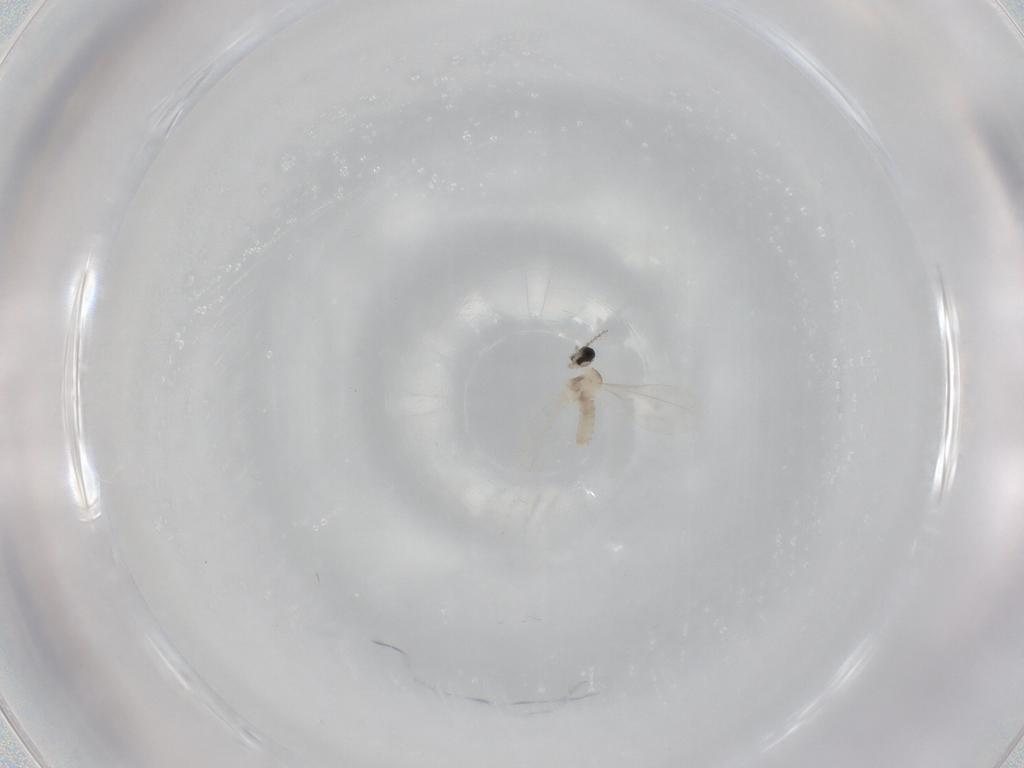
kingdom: Animalia
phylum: Arthropoda
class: Insecta
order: Diptera
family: Cecidomyiidae
